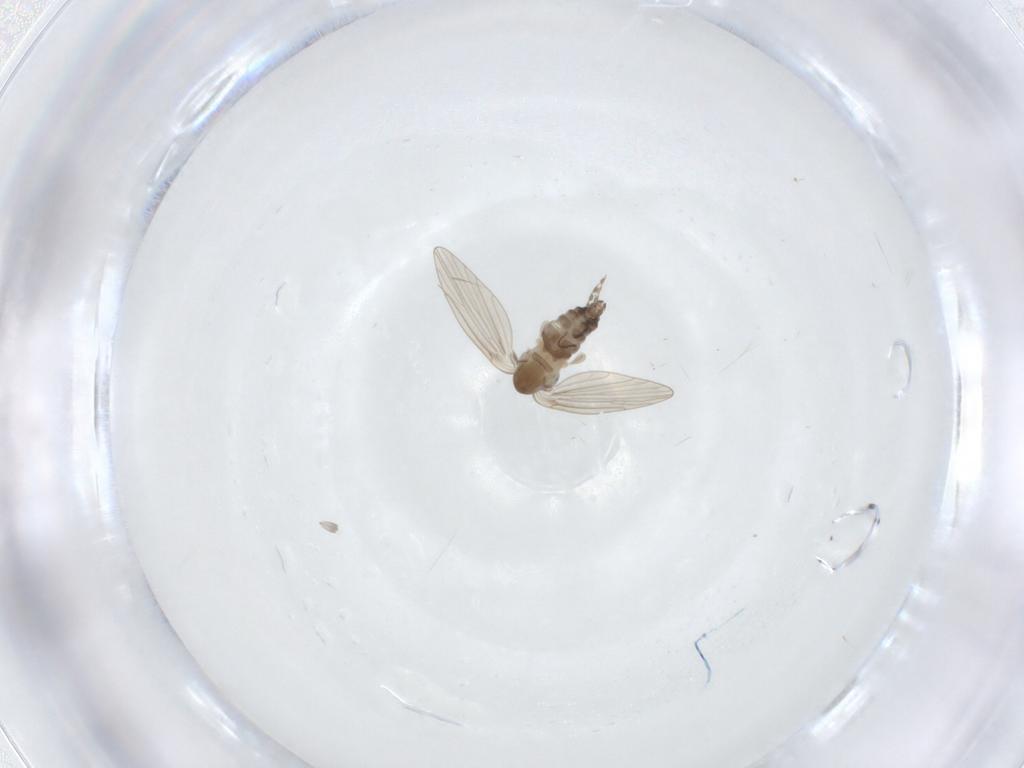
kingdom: Animalia
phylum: Arthropoda
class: Insecta
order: Diptera
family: Psychodidae
